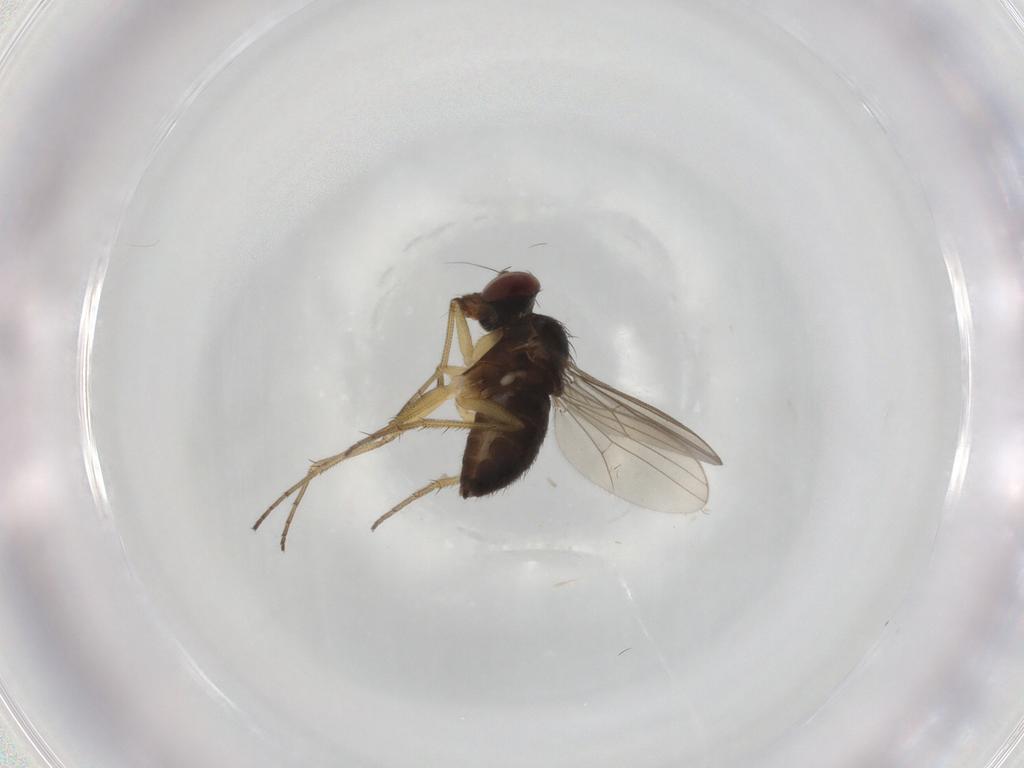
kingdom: Animalia
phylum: Arthropoda
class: Insecta
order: Diptera
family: Dolichopodidae
